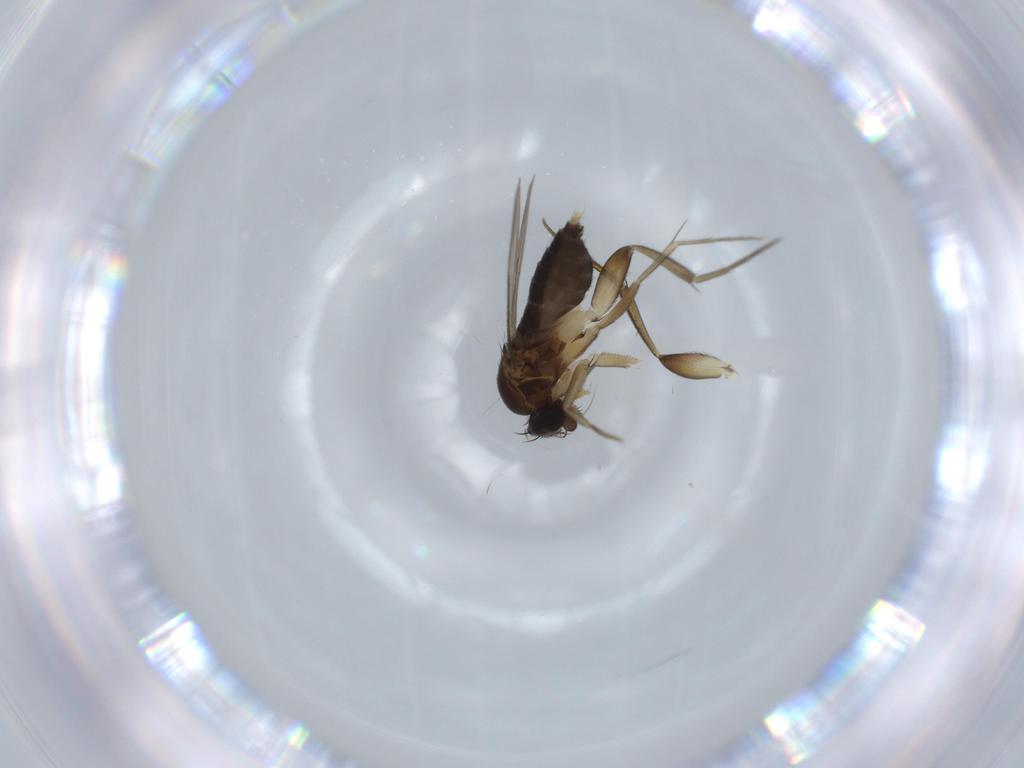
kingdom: Animalia
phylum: Arthropoda
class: Insecta
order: Diptera
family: Phoridae
